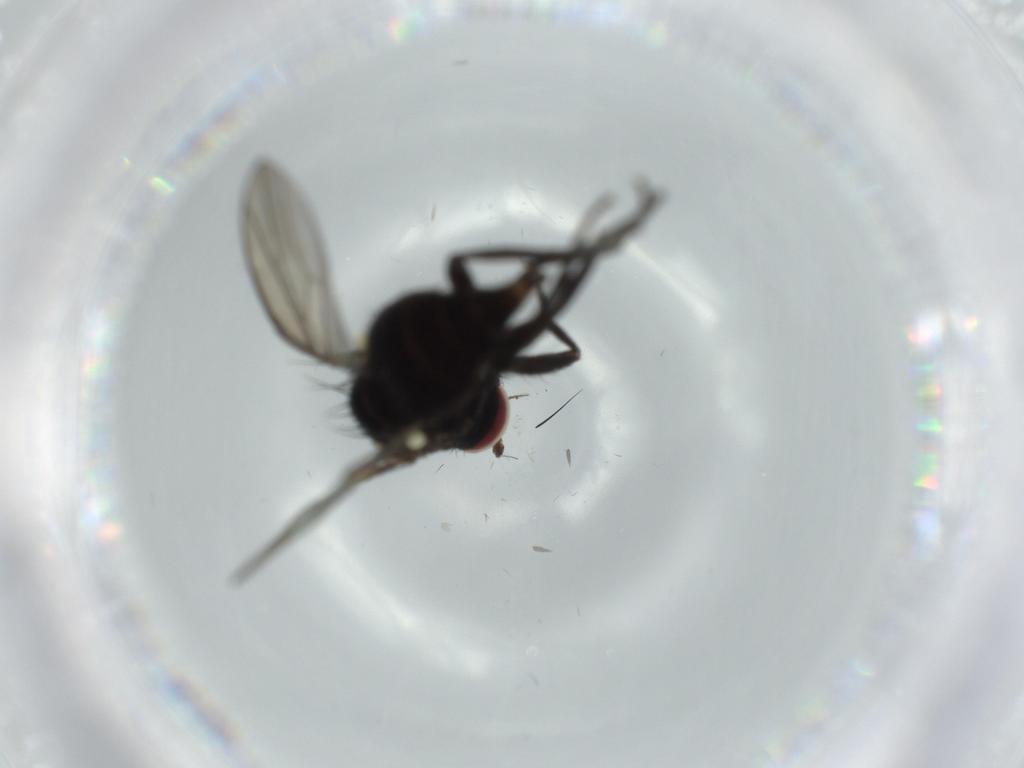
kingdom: Animalia
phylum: Arthropoda
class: Insecta
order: Diptera
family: Agromyzidae
